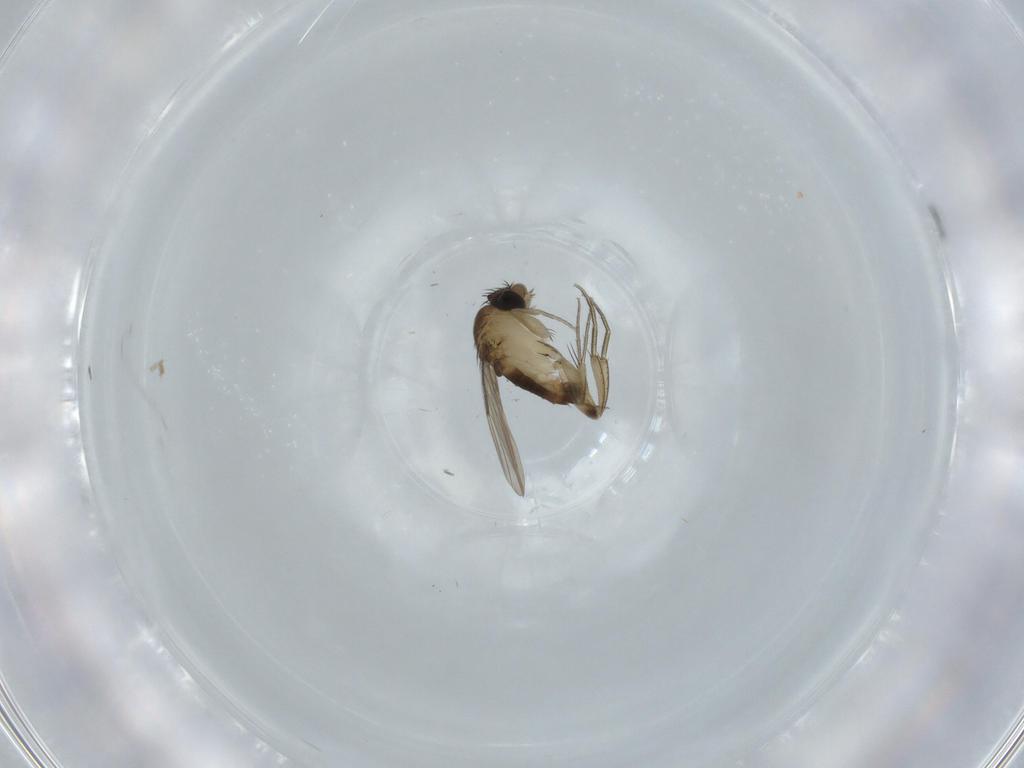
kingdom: Animalia
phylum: Arthropoda
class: Insecta
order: Diptera
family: Phoridae
